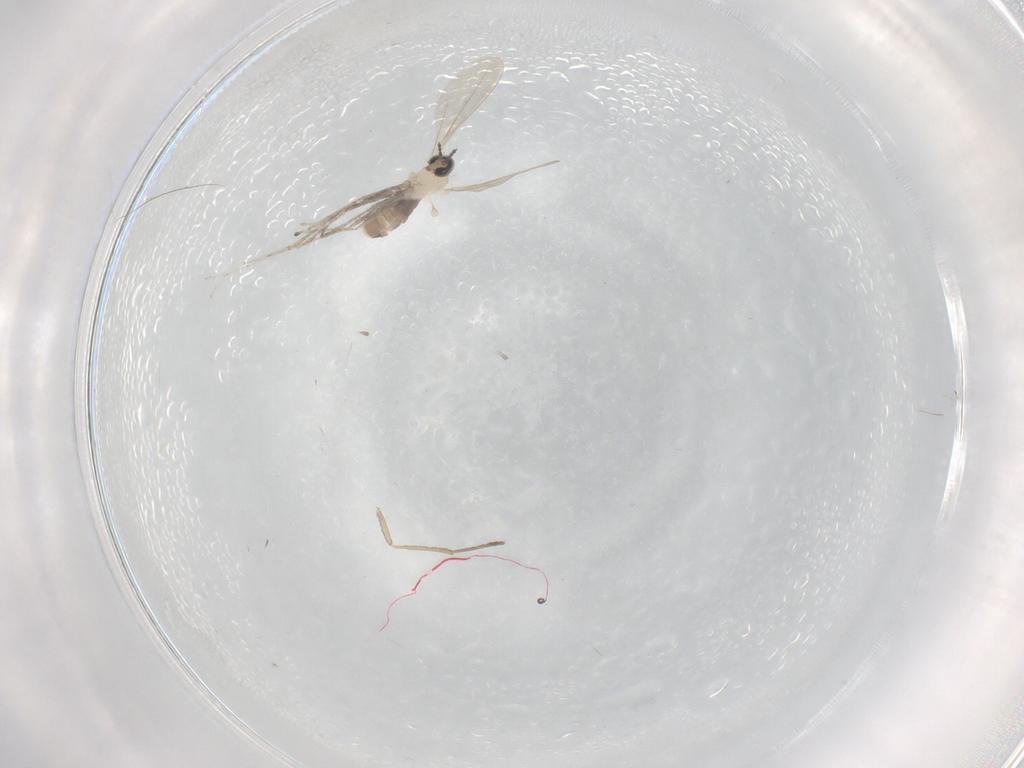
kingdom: Animalia
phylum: Arthropoda
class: Insecta
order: Diptera
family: Cecidomyiidae
